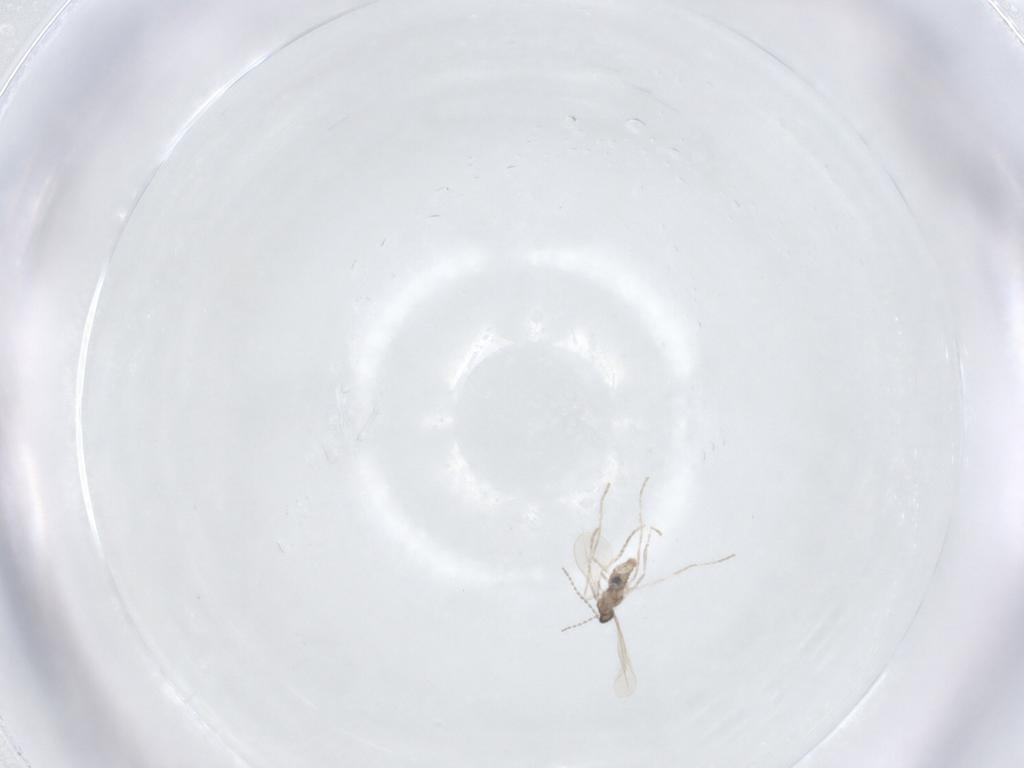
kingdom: Animalia
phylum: Arthropoda
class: Insecta
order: Diptera
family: Cecidomyiidae
